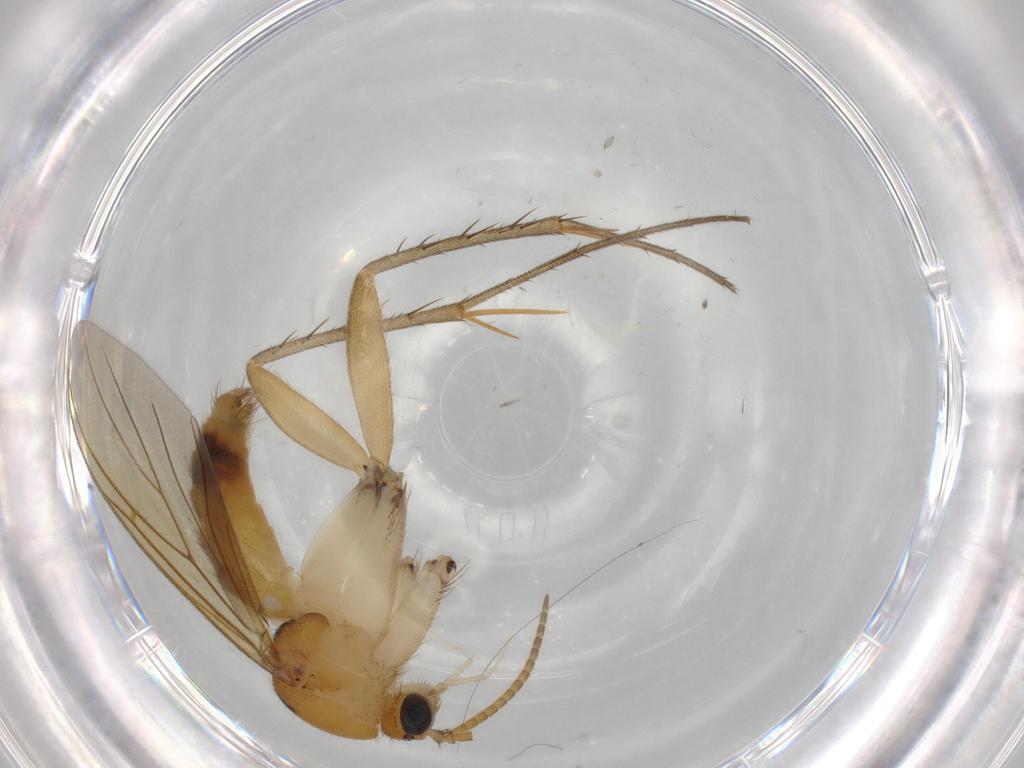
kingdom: Animalia
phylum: Arthropoda
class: Insecta
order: Diptera
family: Ceratopogonidae
